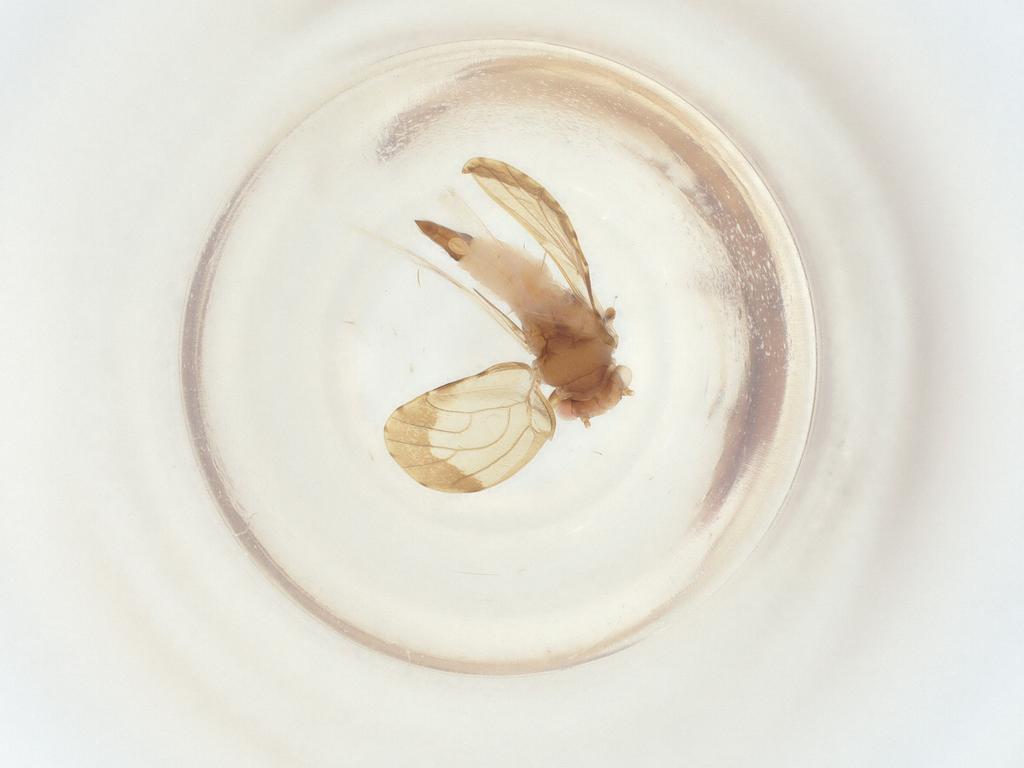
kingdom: Animalia
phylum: Arthropoda
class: Insecta
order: Hemiptera
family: Psyllidae
